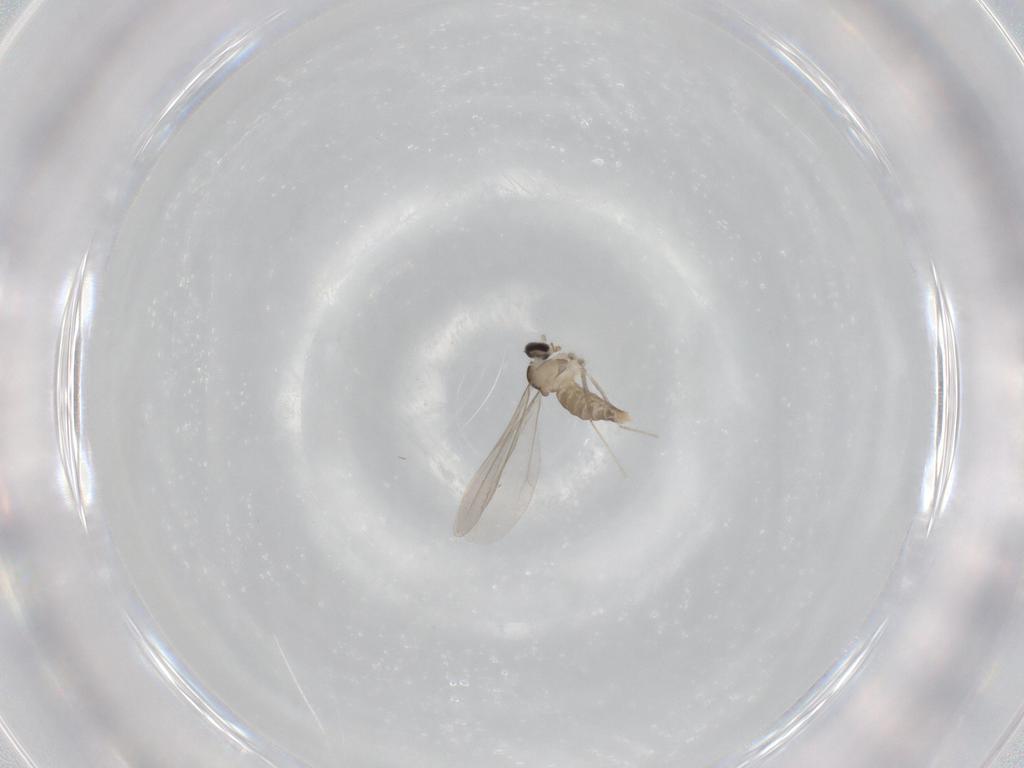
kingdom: Animalia
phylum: Arthropoda
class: Insecta
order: Diptera
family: Cecidomyiidae
